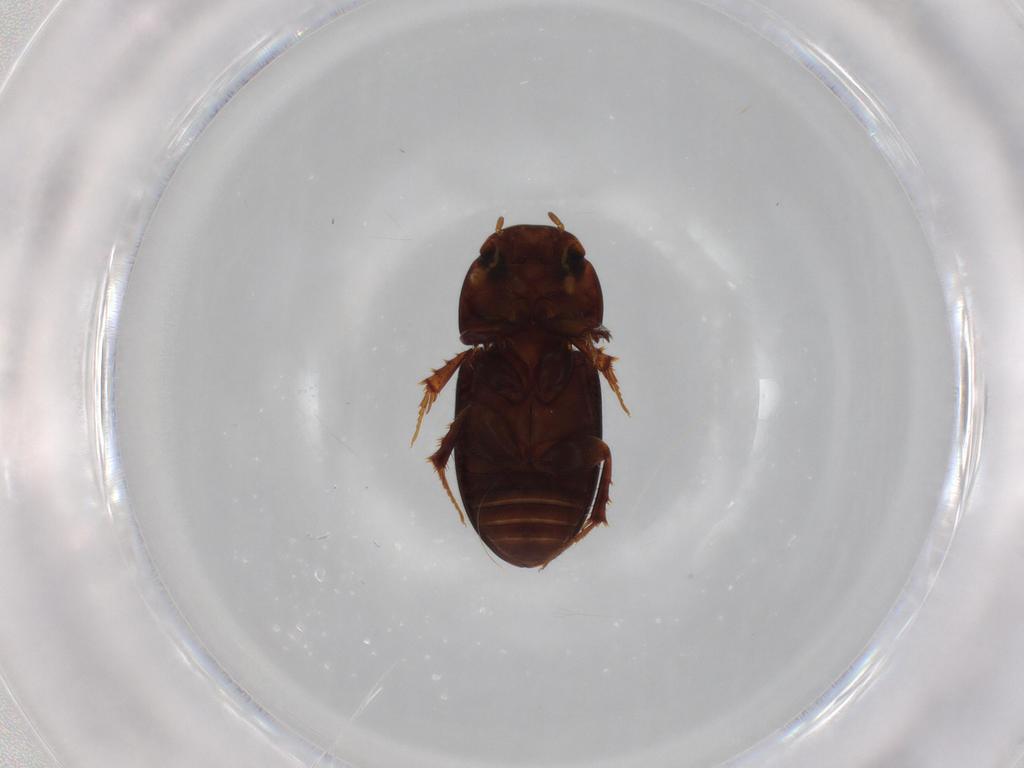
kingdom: Animalia
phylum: Arthropoda
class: Insecta
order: Coleoptera
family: Scarabaeidae
